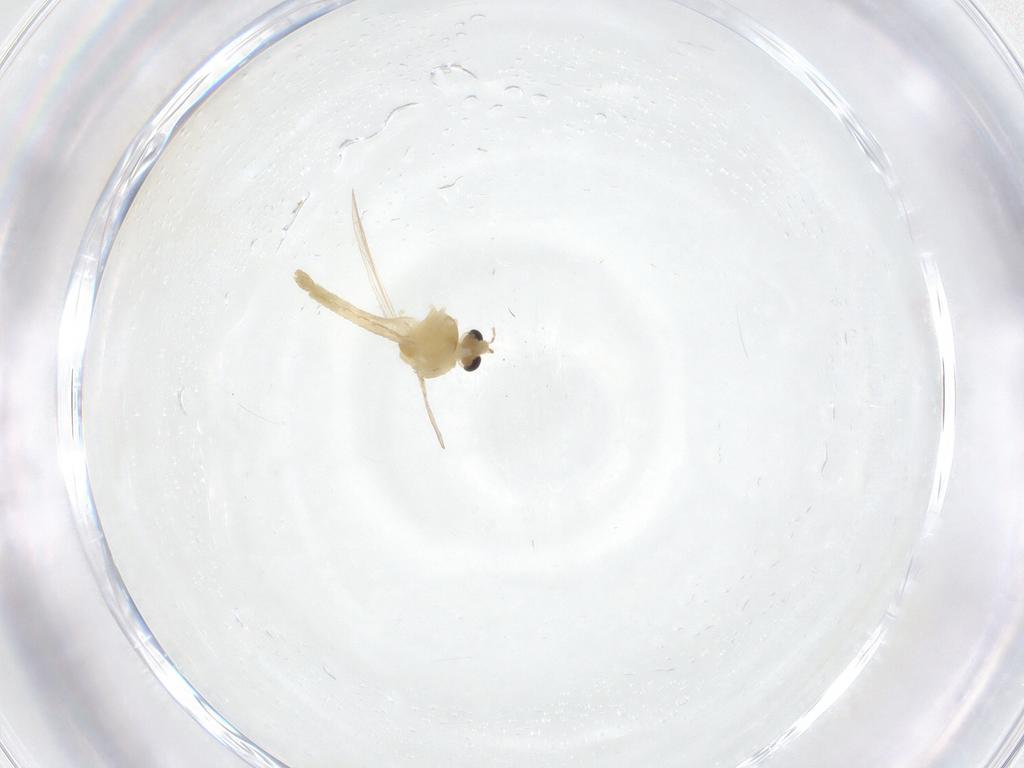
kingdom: Animalia
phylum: Arthropoda
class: Insecta
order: Diptera
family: Chironomidae
